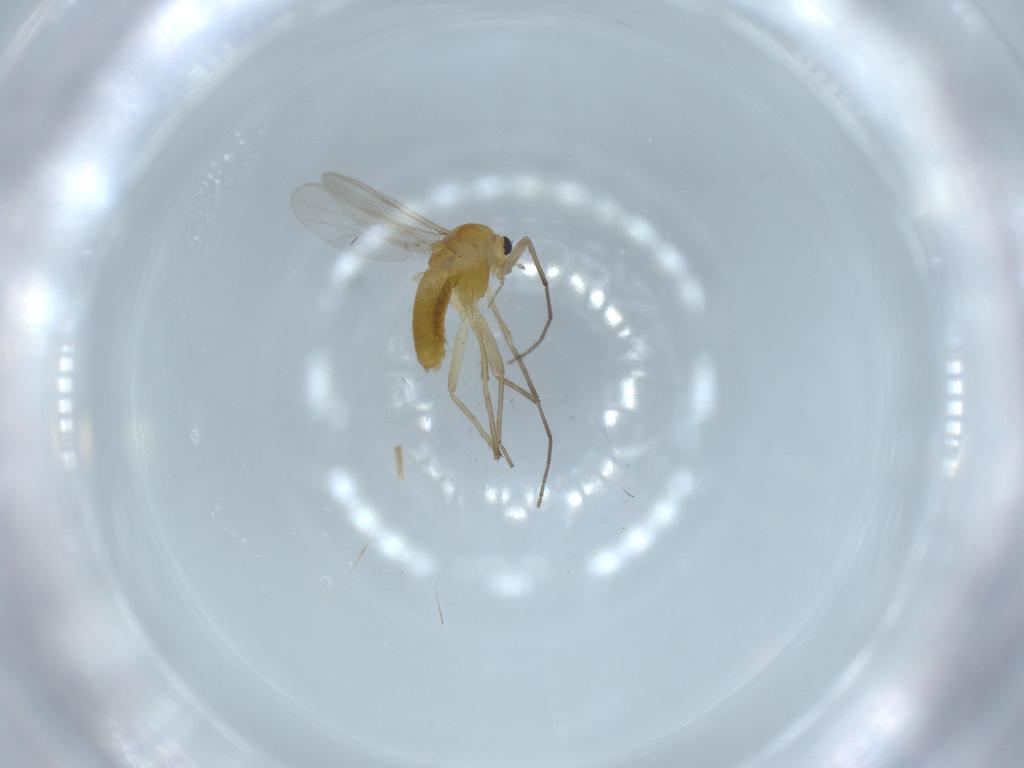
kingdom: Animalia
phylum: Arthropoda
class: Insecta
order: Diptera
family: Chironomidae
